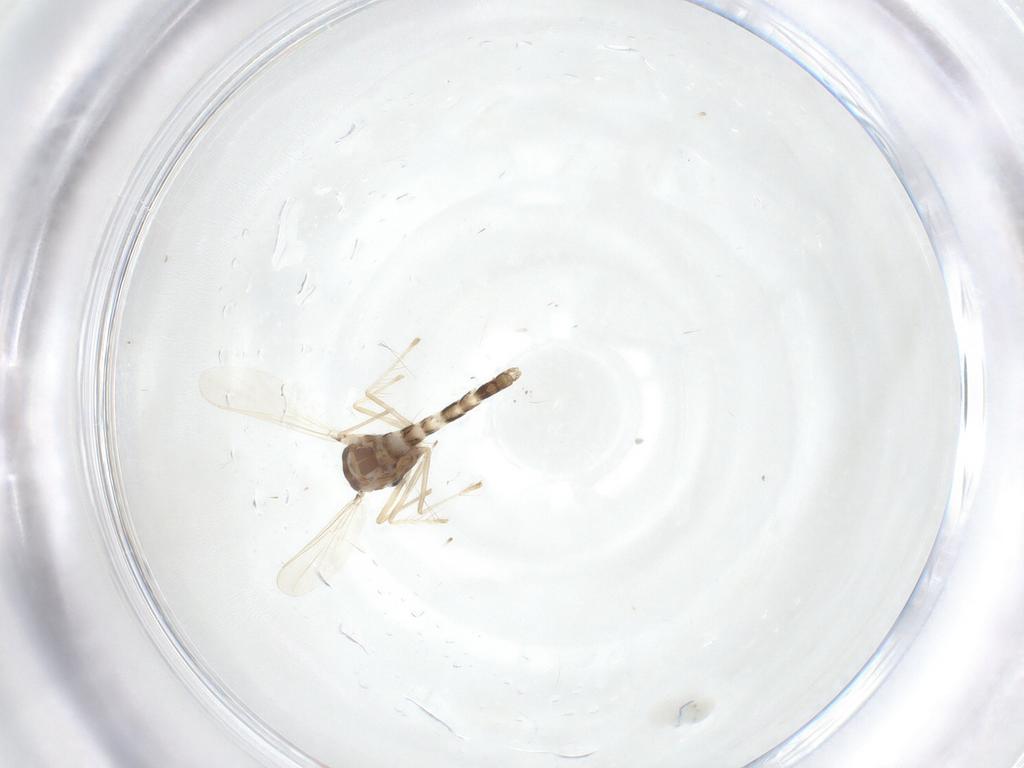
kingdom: Animalia
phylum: Arthropoda
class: Insecta
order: Diptera
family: Chironomidae
